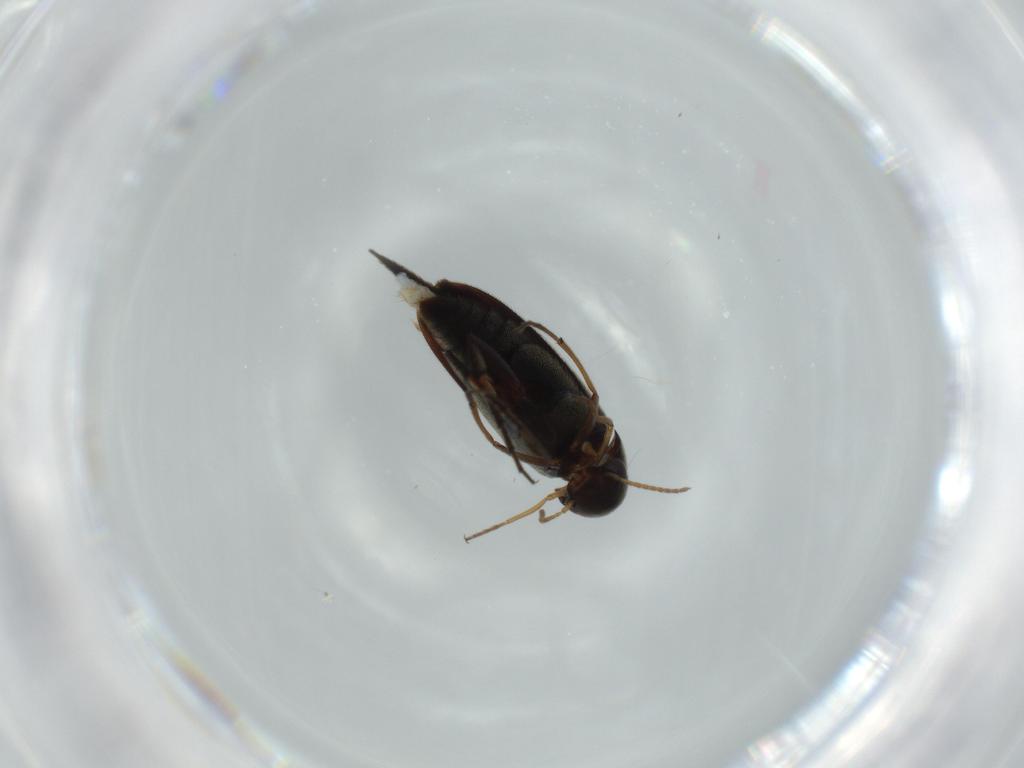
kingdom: Animalia
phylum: Arthropoda
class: Insecta
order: Coleoptera
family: Mordellidae
